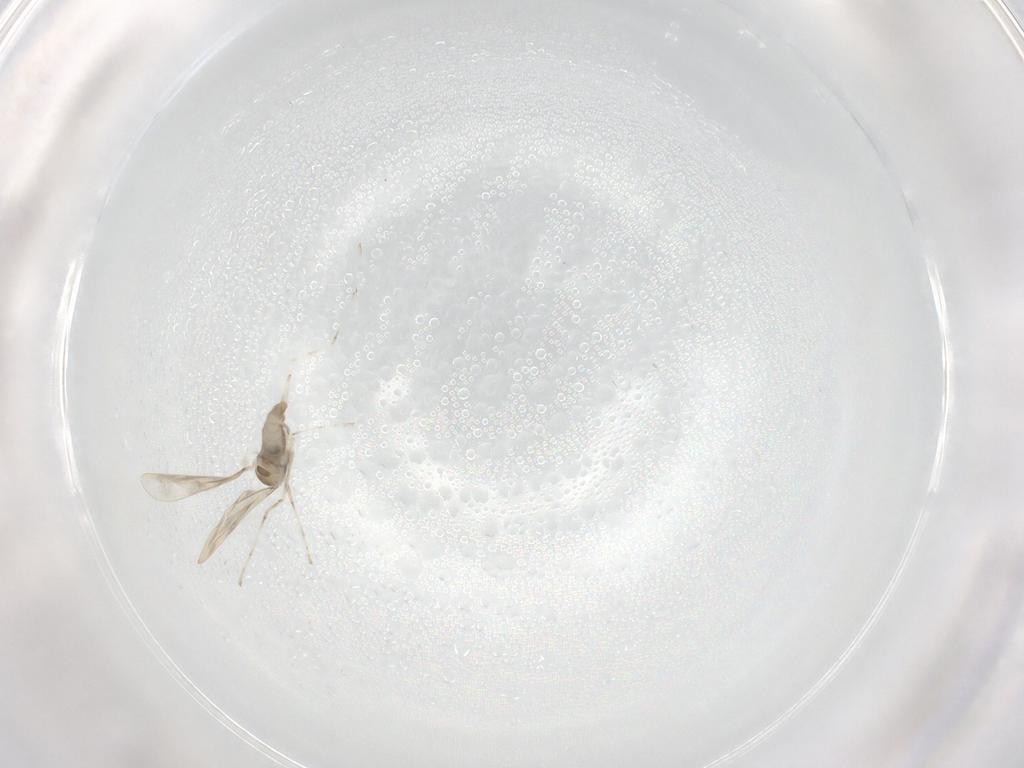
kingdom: Animalia
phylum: Arthropoda
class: Insecta
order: Diptera
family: Cecidomyiidae
